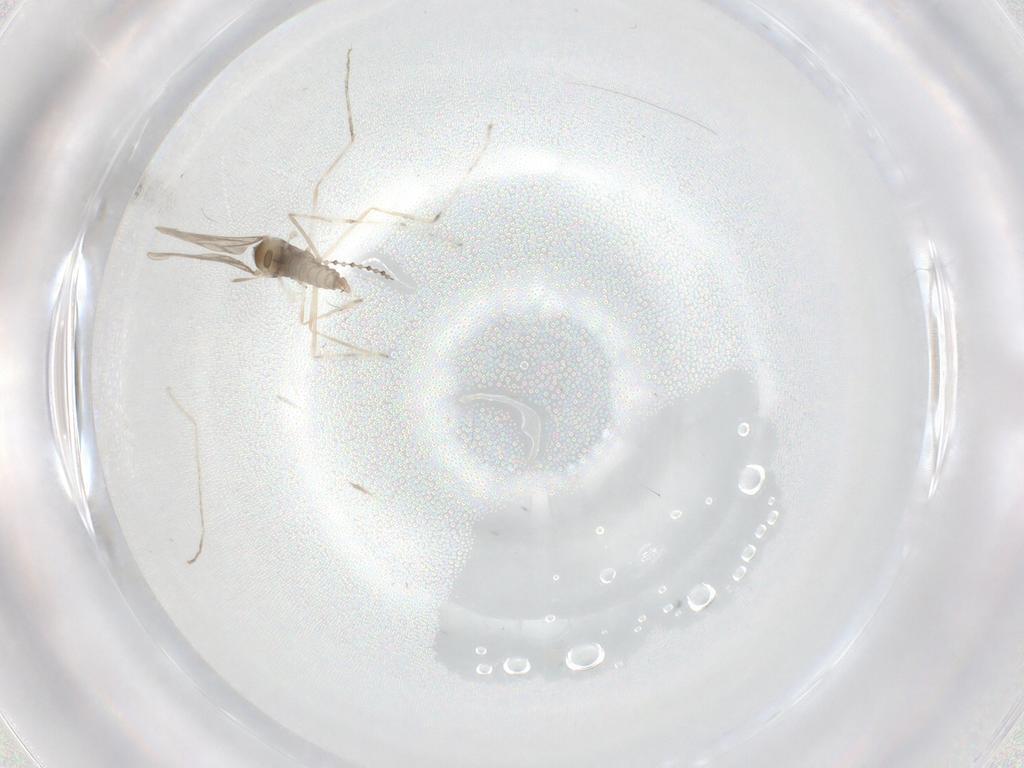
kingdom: Animalia
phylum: Arthropoda
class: Insecta
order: Diptera
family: Cecidomyiidae
